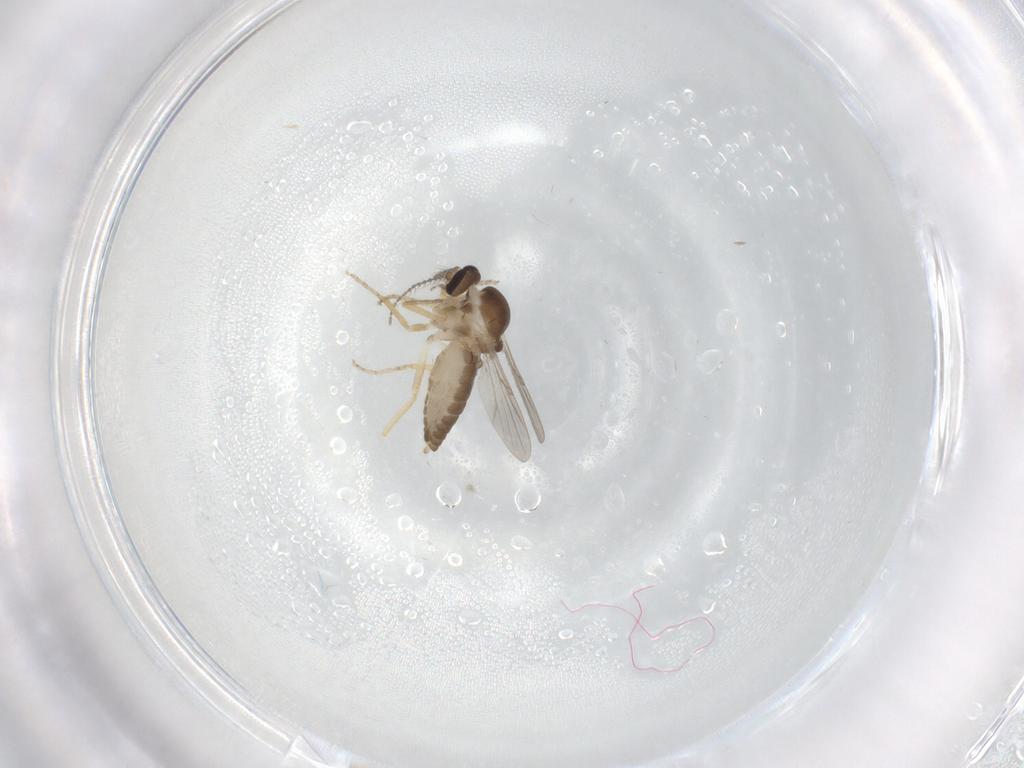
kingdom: Animalia
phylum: Arthropoda
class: Insecta
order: Diptera
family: Ceratopogonidae
